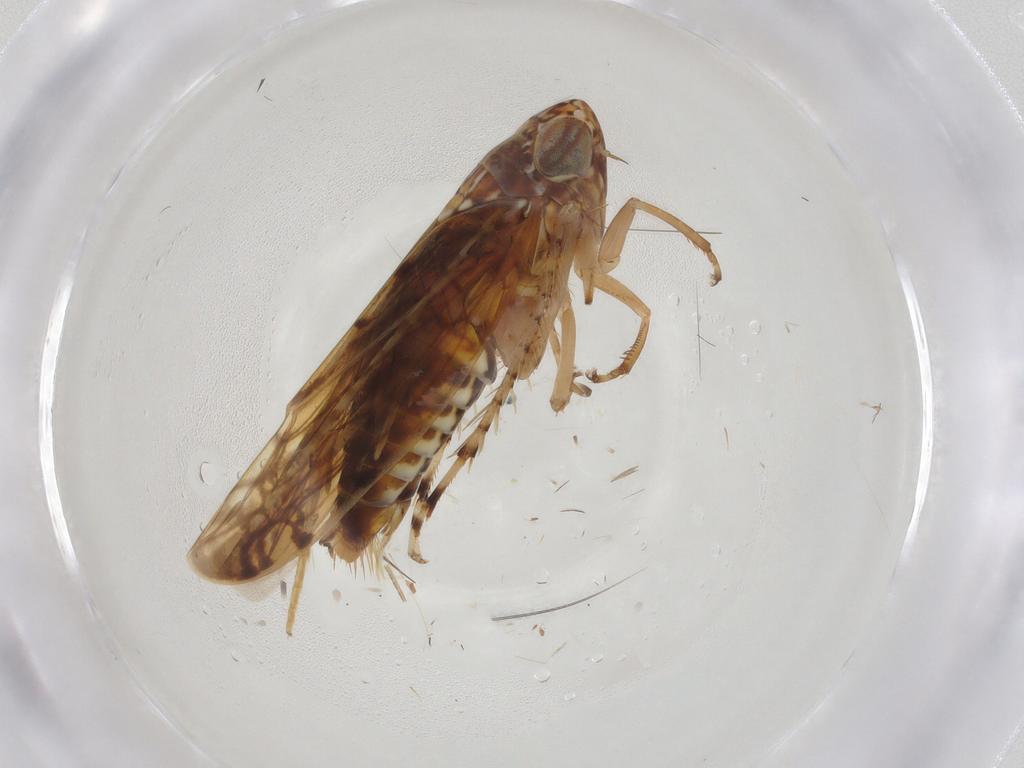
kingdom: Animalia
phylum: Arthropoda
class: Insecta
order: Hemiptera
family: Cicadellidae
